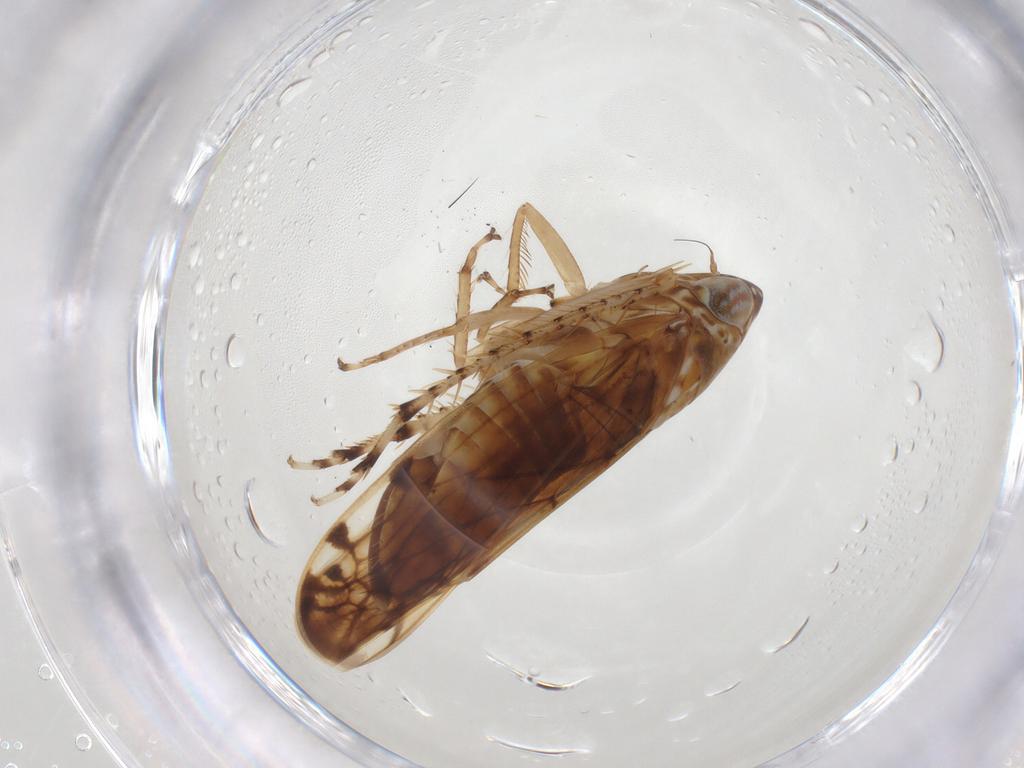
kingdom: Animalia
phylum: Arthropoda
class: Insecta
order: Hemiptera
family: Cicadellidae
